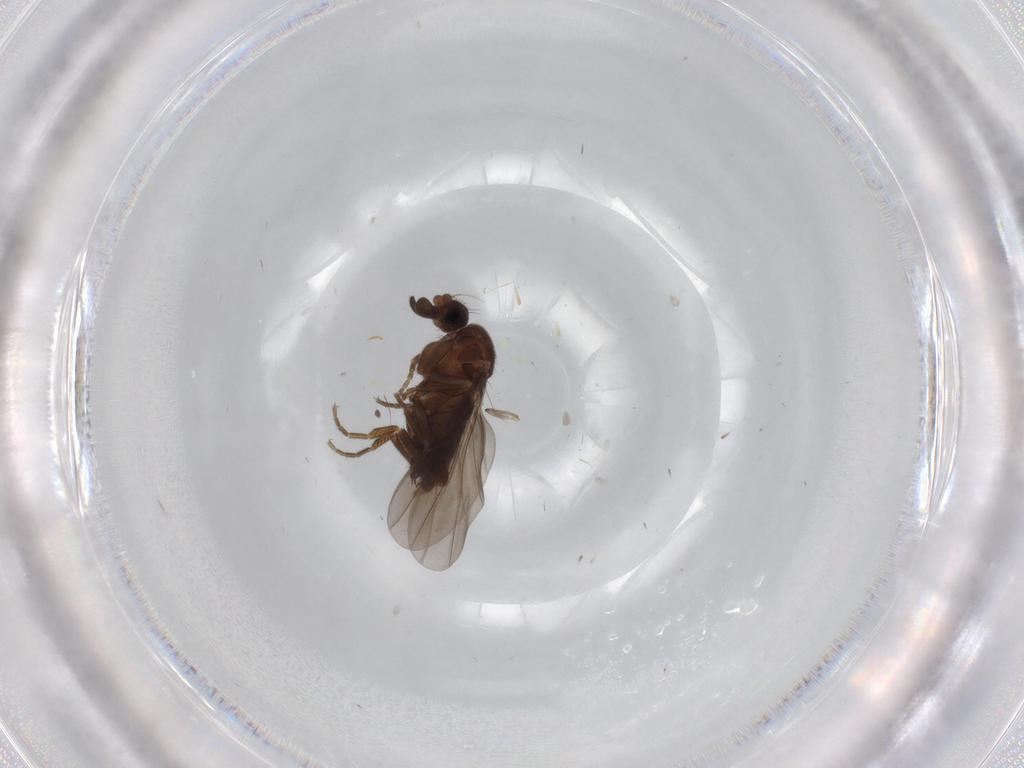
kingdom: Animalia
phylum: Arthropoda
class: Insecta
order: Diptera
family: Phoridae
